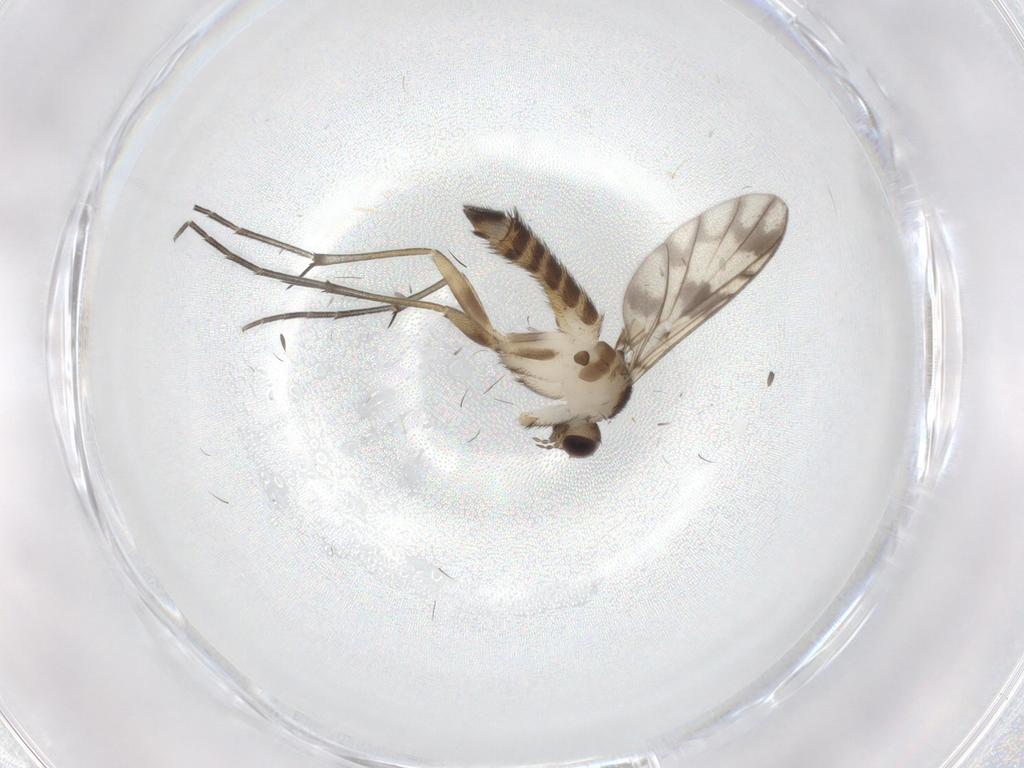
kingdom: Animalia
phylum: Arthropoda
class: Insecta
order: Diptera
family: Keroplatidae
